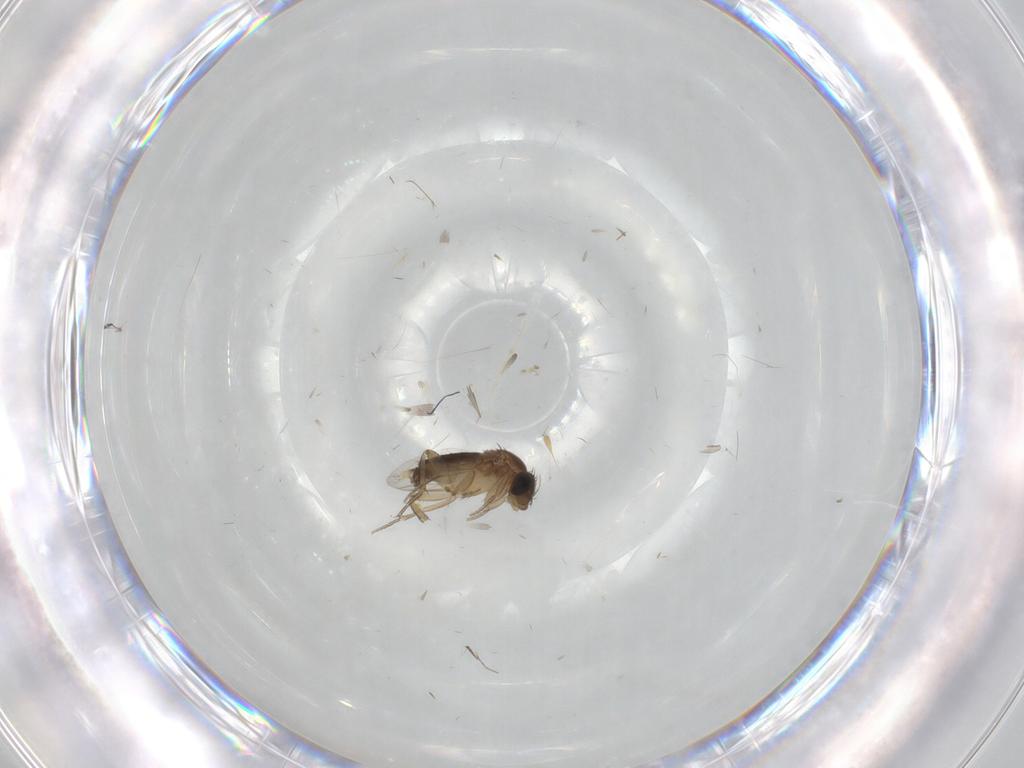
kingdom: Animalia
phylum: Arthropoda
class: Insecta
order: Diptera
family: Phoridae
